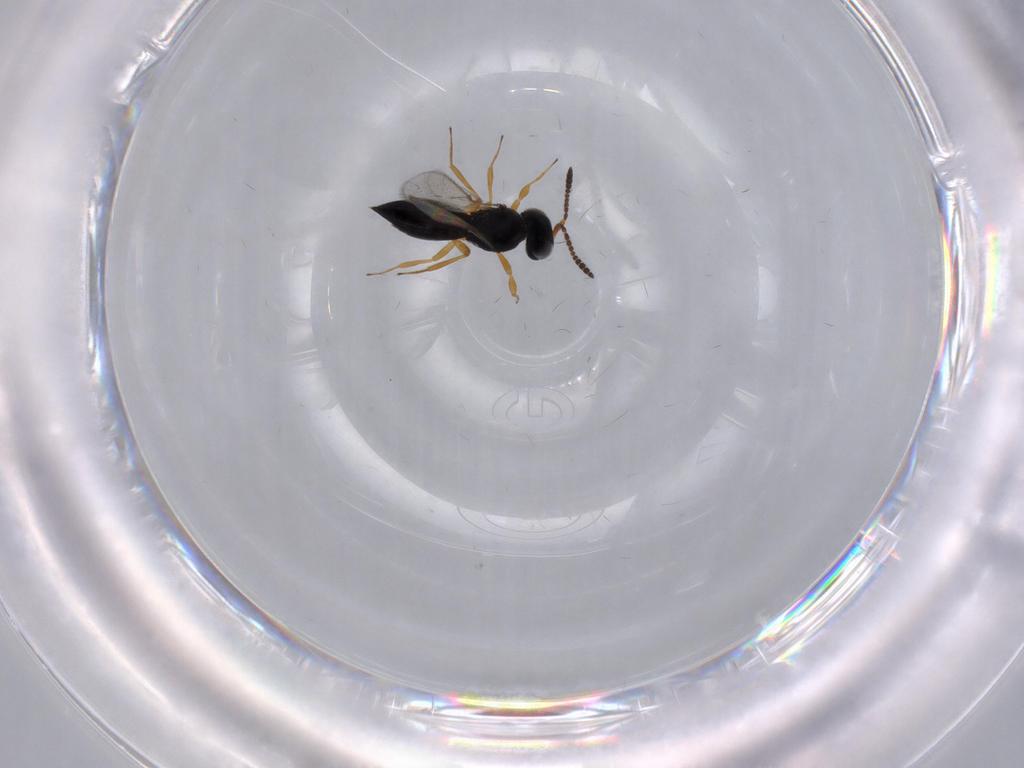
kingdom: Animalia
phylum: Arthropoda
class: Insecta
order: Hymenoptera
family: Scelionidae
